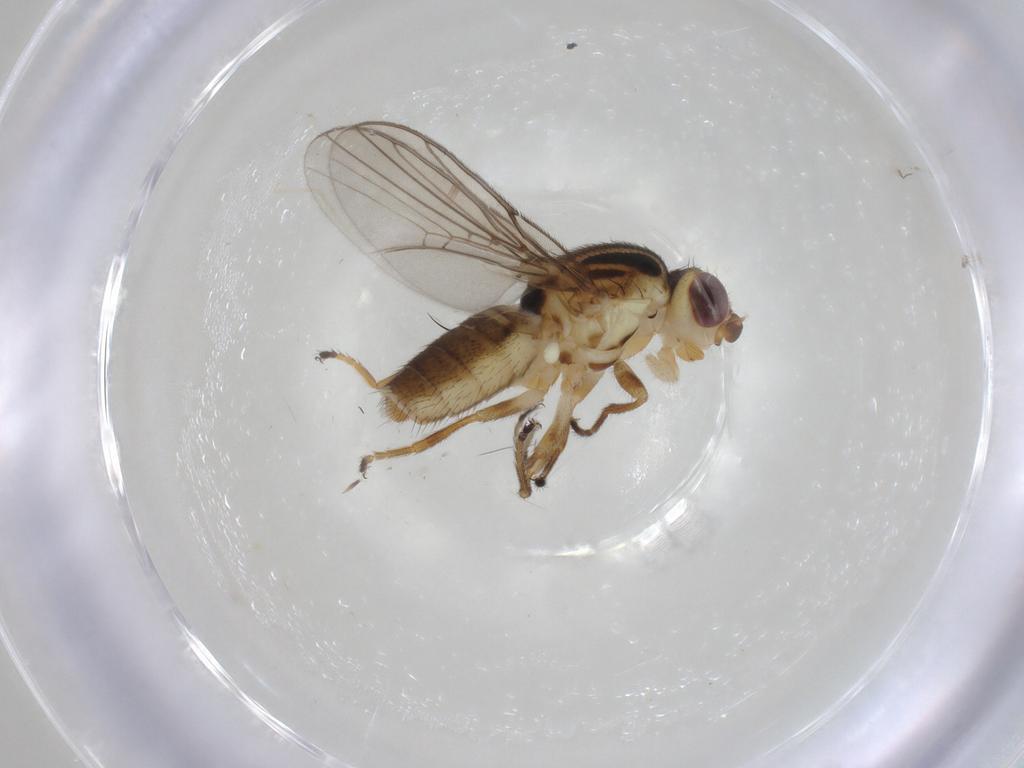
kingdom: Animalia
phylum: Arthropoda
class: Insecta
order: Diptera
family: Chloropidae
